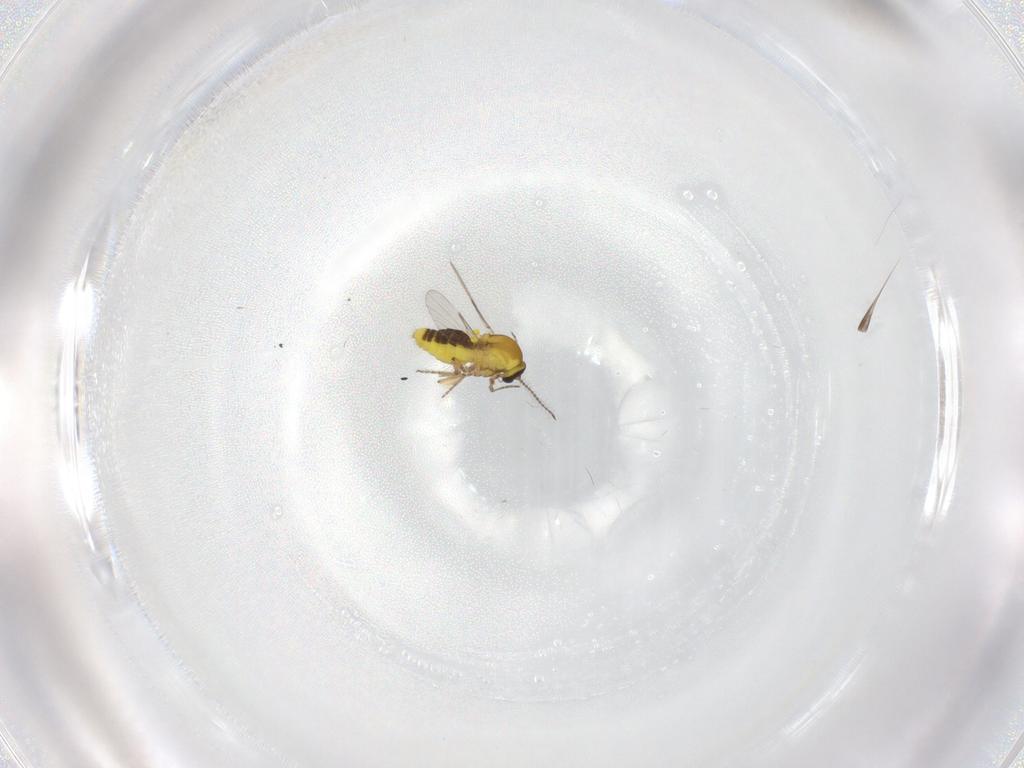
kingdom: Animalia
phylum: Arthropoda
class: Insecta
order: Diptera
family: Ceratopogonidae
